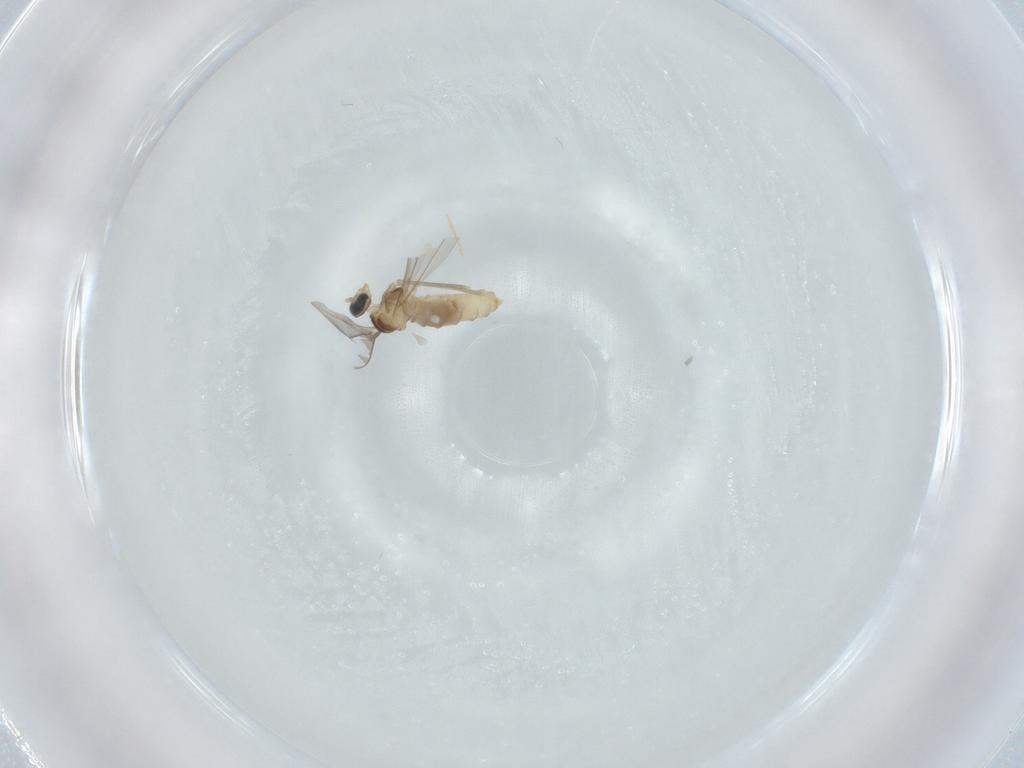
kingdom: Animalia
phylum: Arthropoda
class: Insecta
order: Diptera
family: Cecidomyiidae
